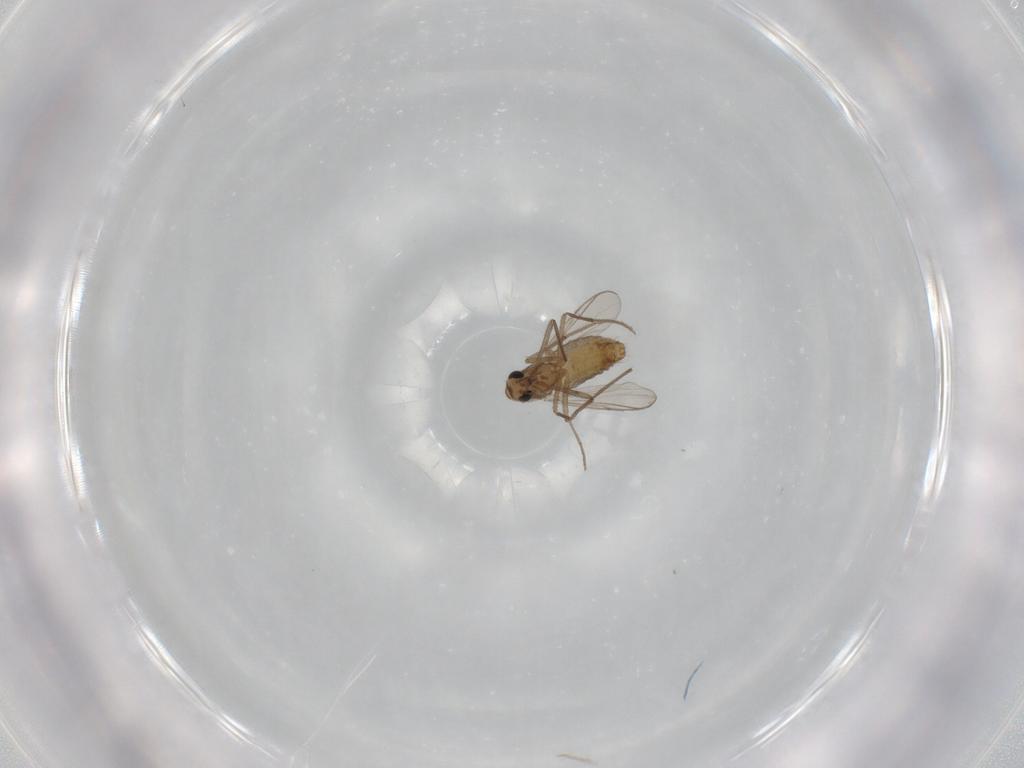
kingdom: Animalia
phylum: Arthropoda
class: Insecta
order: Diptera
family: Chironomidae
